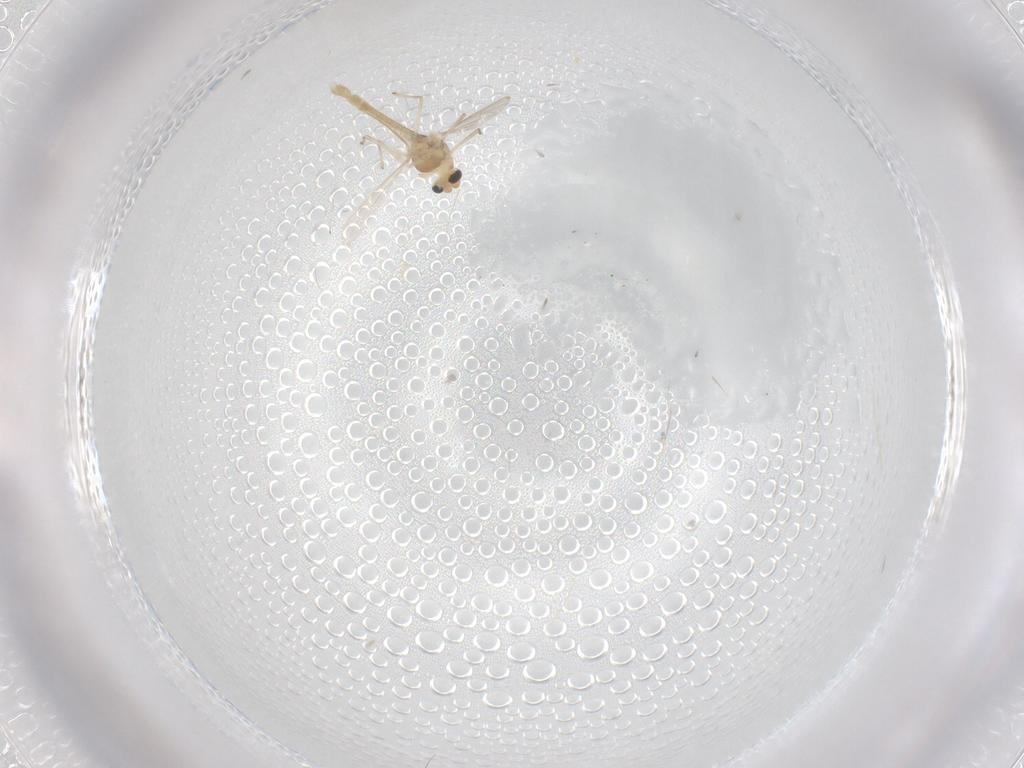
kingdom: Animalia
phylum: Arthropoda
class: Insecta
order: Diptera
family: Chironomidae
